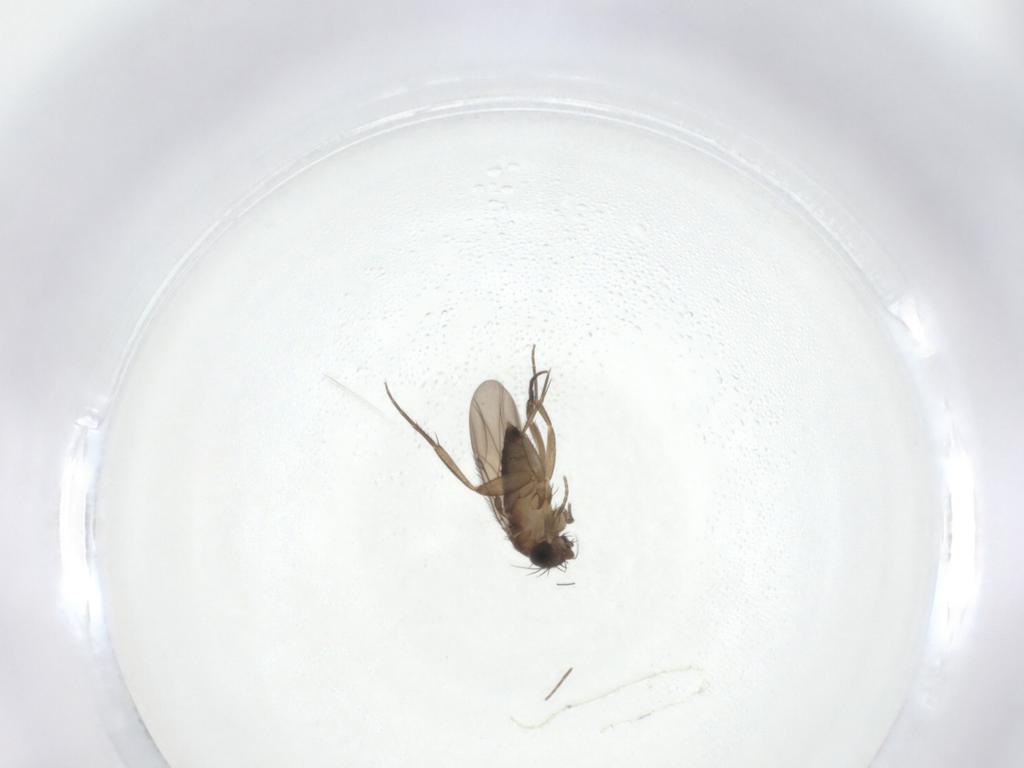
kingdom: Animalia
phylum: Arthropoda
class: Insecta
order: Diptera
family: Phoridae
